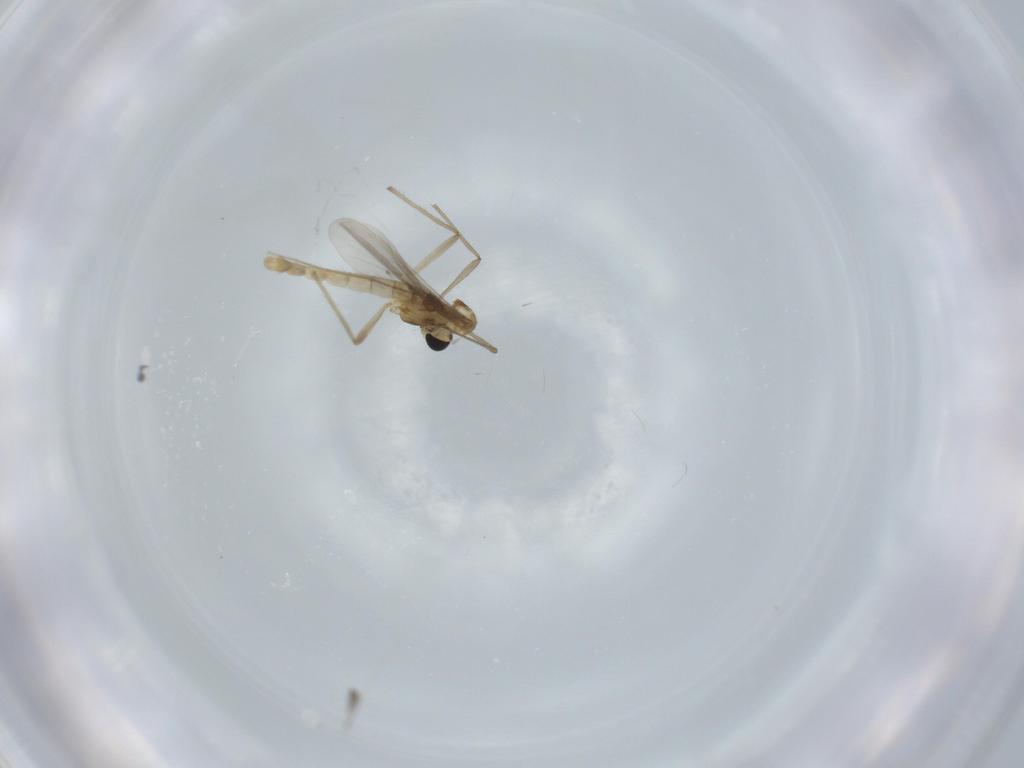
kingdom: Animalia
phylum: Arthropoda
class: Insecta
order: Diptera
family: Chironomidae
